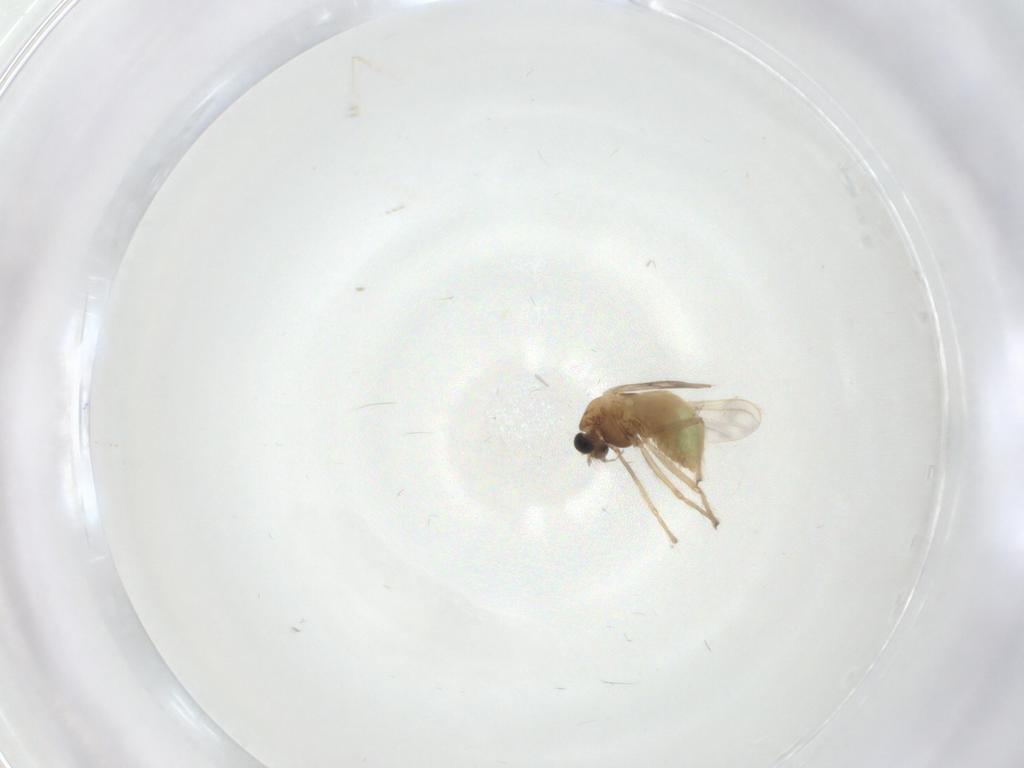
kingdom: Animalia
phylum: Arthropoda
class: Insecta
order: Diptera
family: Chironomidae
